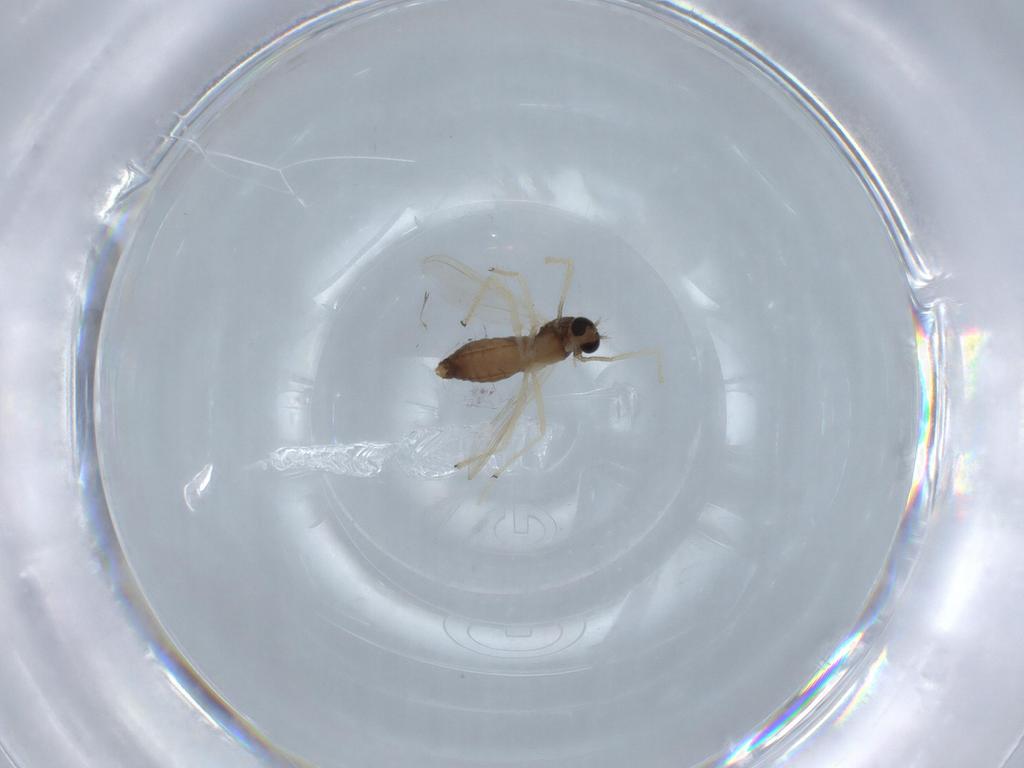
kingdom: Animalia
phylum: Arthropoda
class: Insecta
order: Diptera
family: Chironomidae
